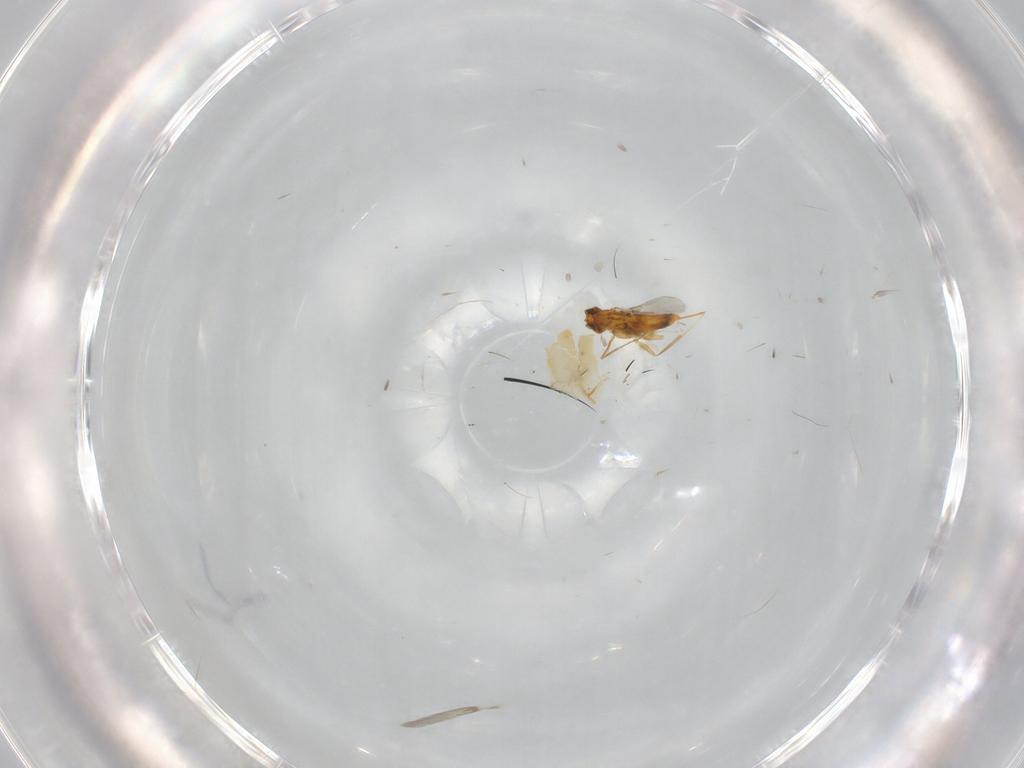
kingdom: Animalia
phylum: Arthropoda
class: Insecta
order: Hymenoptera
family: Aphelinidae
